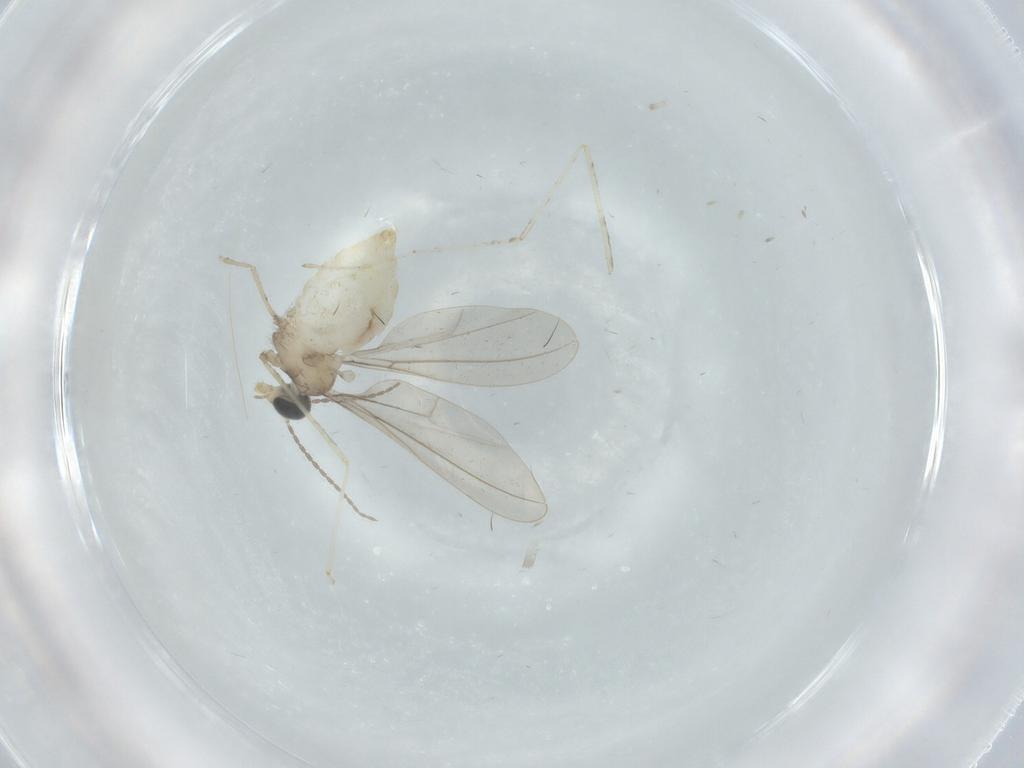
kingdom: Animalia
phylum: Arthropoda
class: Insecta
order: Diptera
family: Cecidomyiidae
